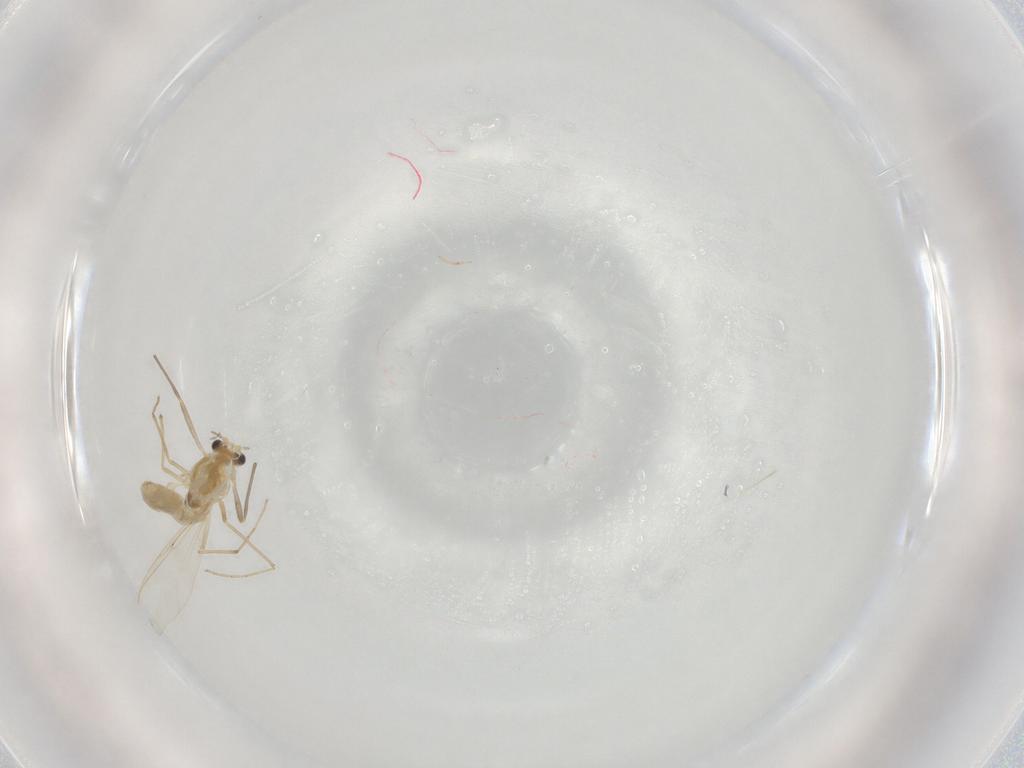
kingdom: Animalia
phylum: Arthropoda
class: Insecta
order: Diptera
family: Chironomidae
